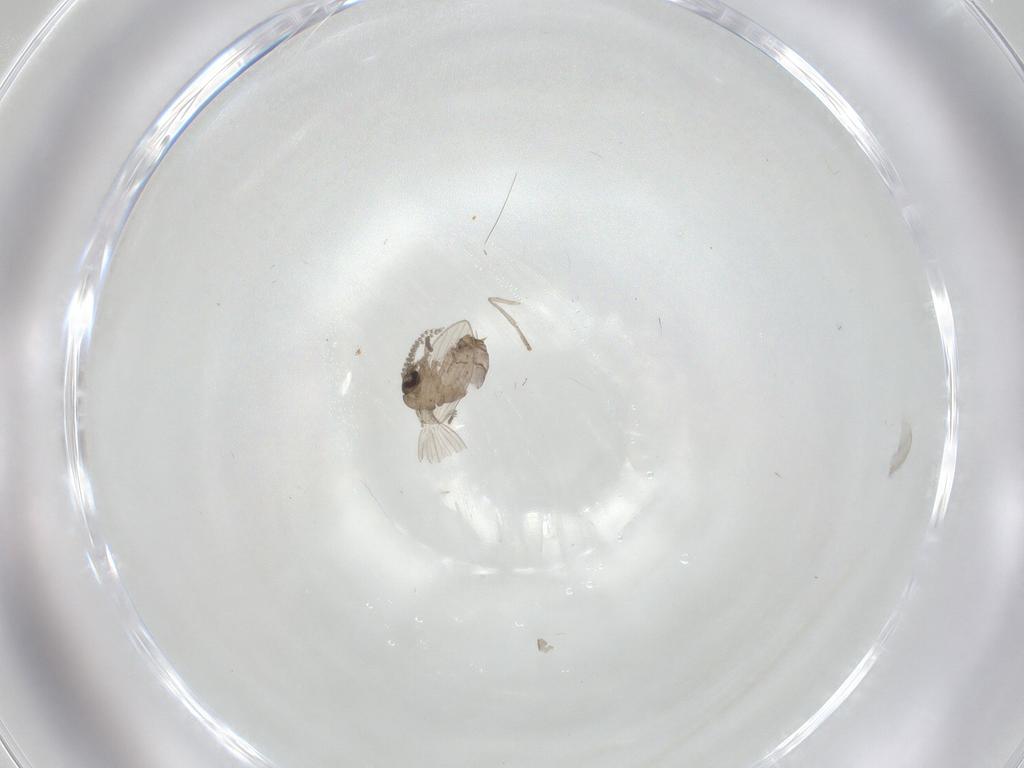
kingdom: Animalia
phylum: Arthropoda
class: Insecta
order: Diptera
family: Psychodidae
